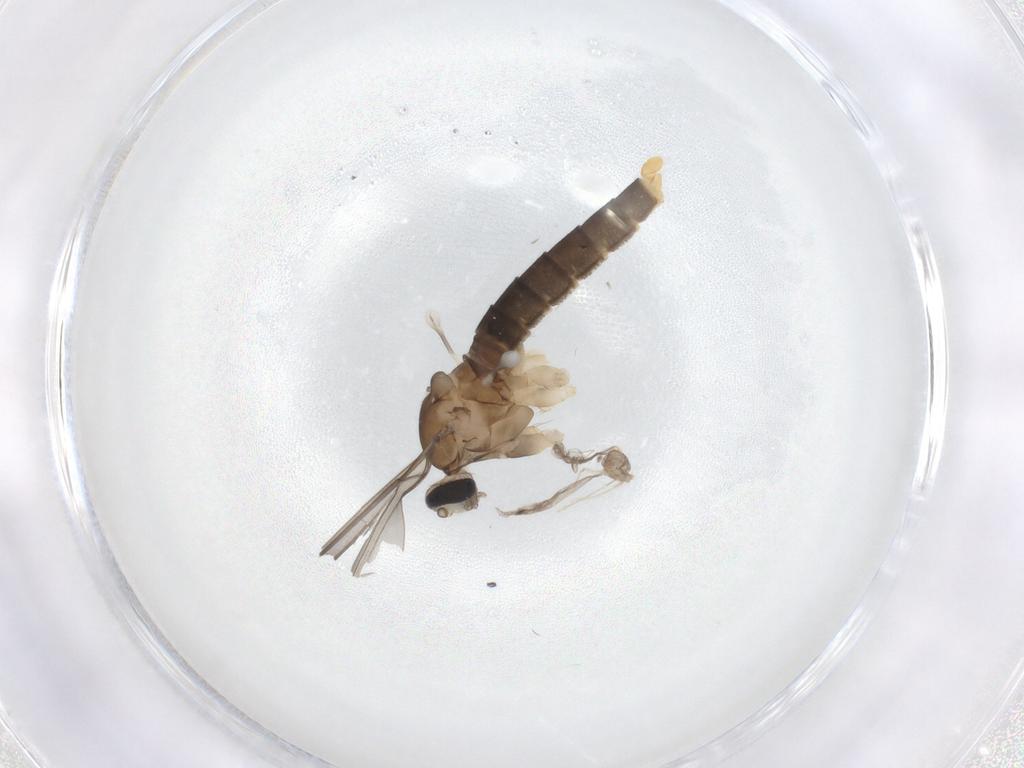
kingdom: Animalia
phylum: Arthropoda
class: Insecta
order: Diptera
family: Cecidomyiidae
